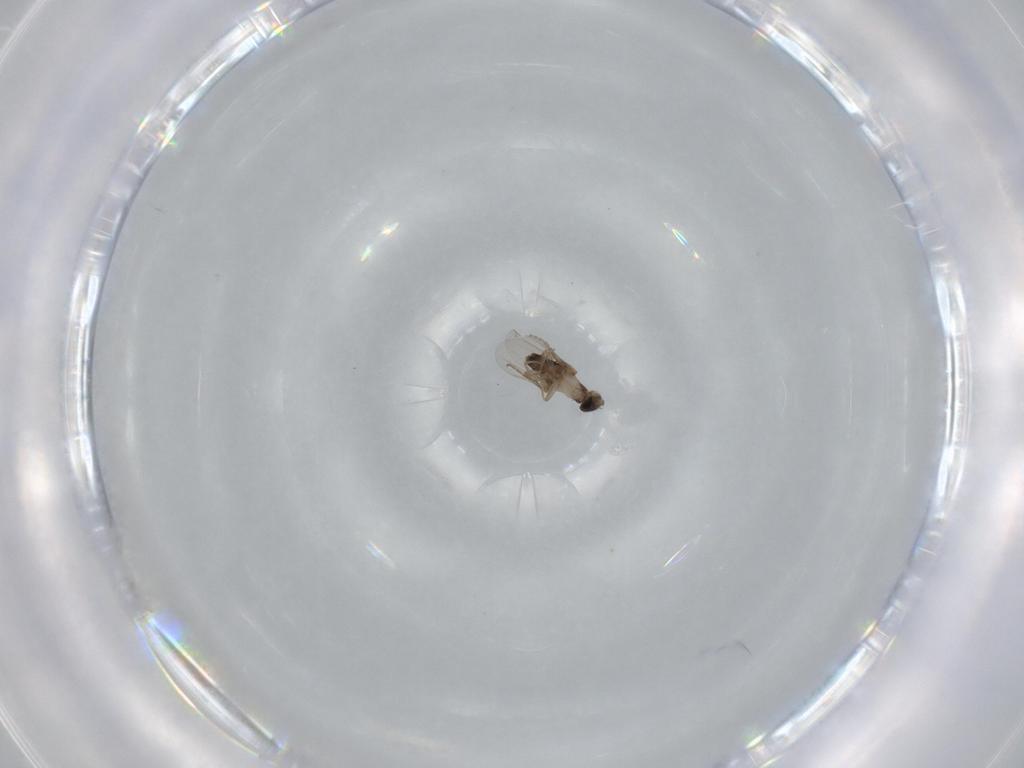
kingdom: Animalia
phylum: Arthropoda
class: Insecta
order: Diptera
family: Phoridae
